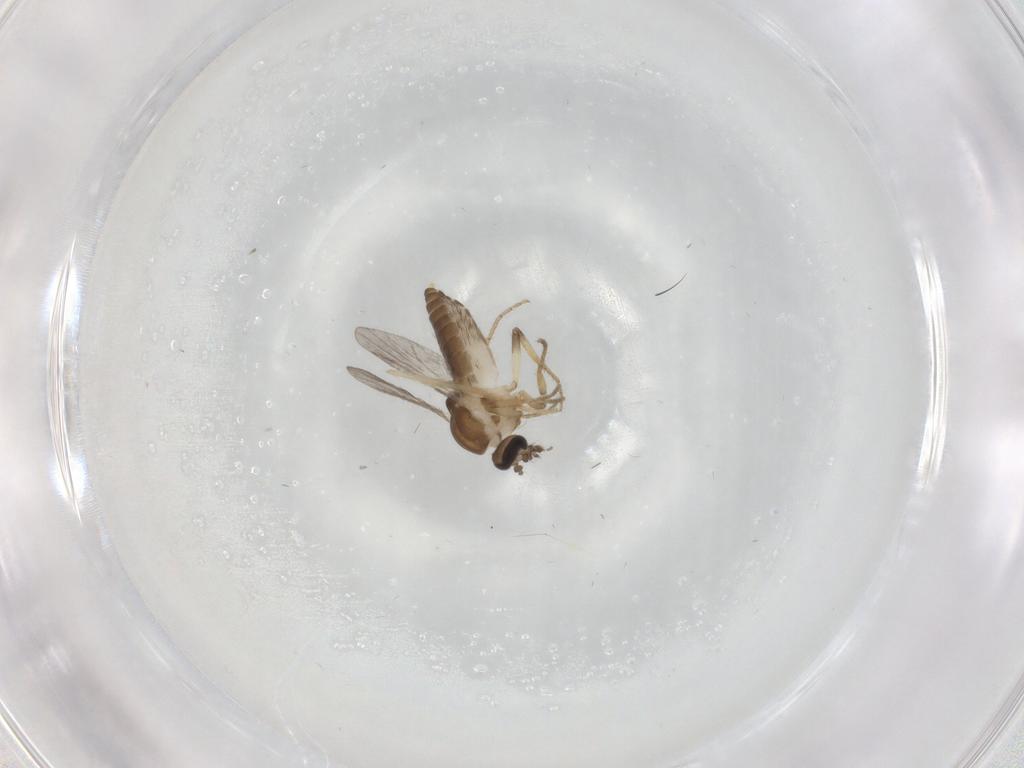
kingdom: Animalia
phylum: Arthropoda
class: Insecta
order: Diptera
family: Ceratopogonidae
